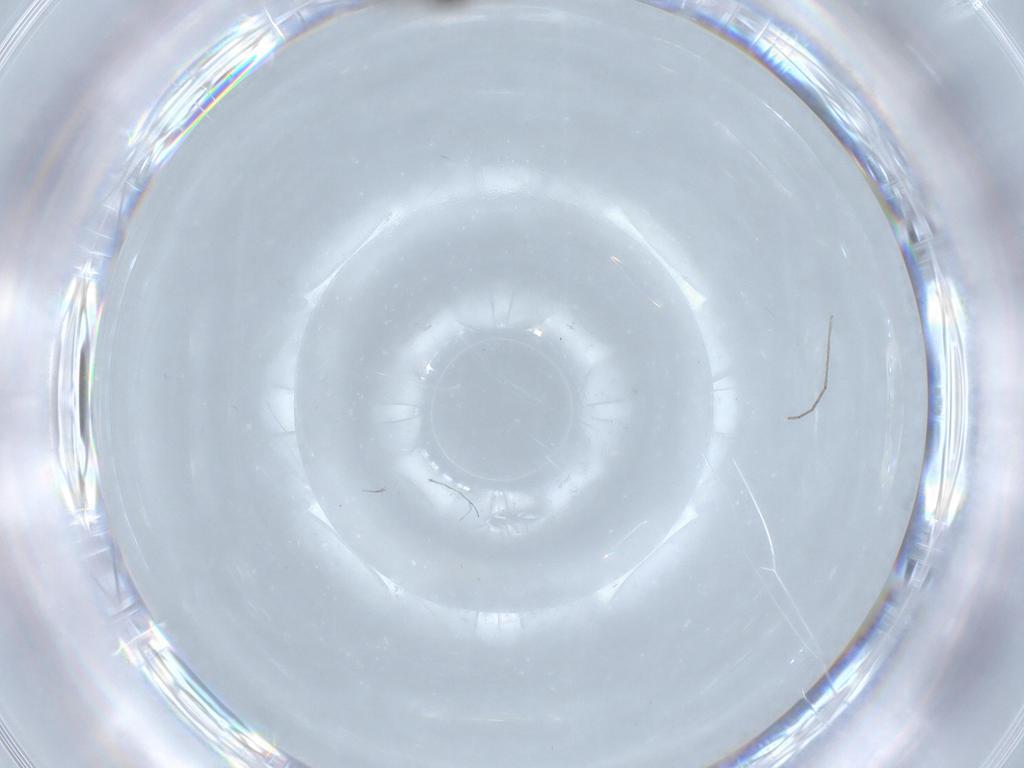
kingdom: Animalia
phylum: Arthropoda
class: Insecta
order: Diptera
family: Cecidomyiidae
